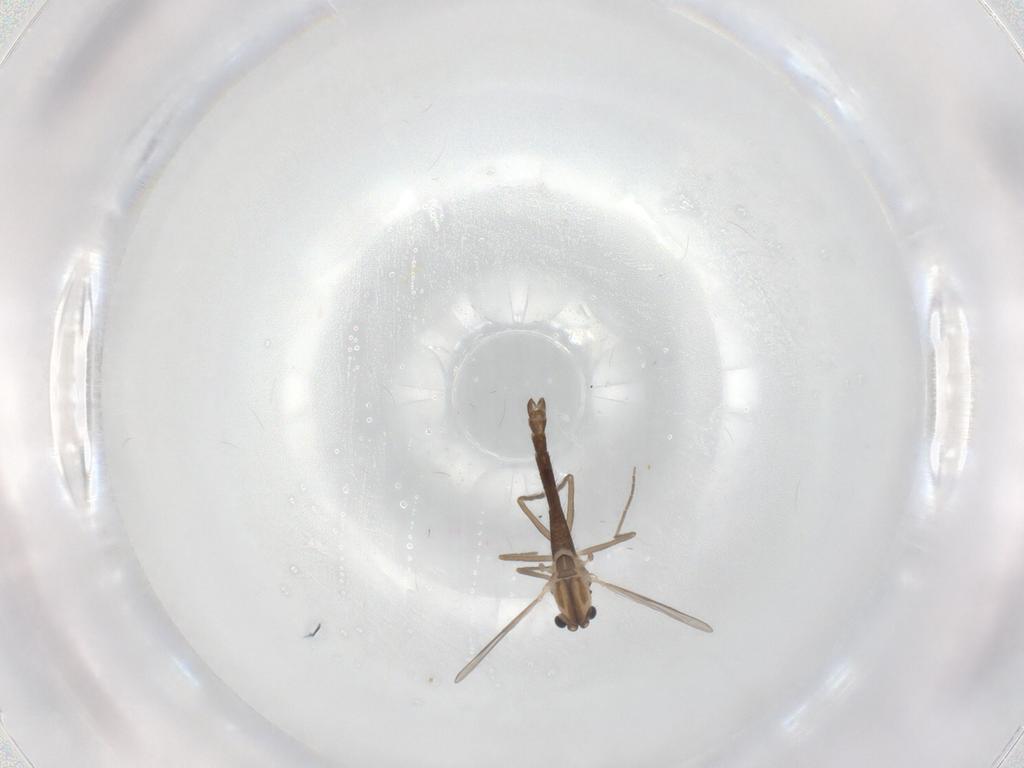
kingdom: Animalia
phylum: Arthropoda
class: Insecta
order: Diptera
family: Chironomidae
